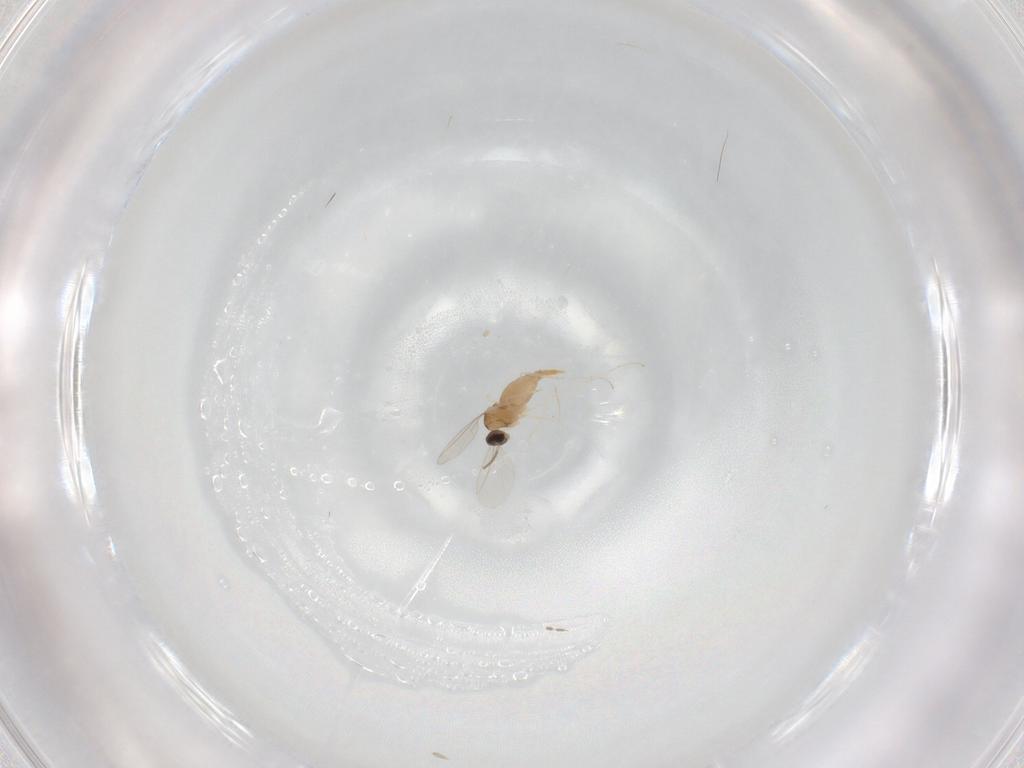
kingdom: Animalia
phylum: Arthropoda
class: Insecta
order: Diptera
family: Cecidomyiidae
